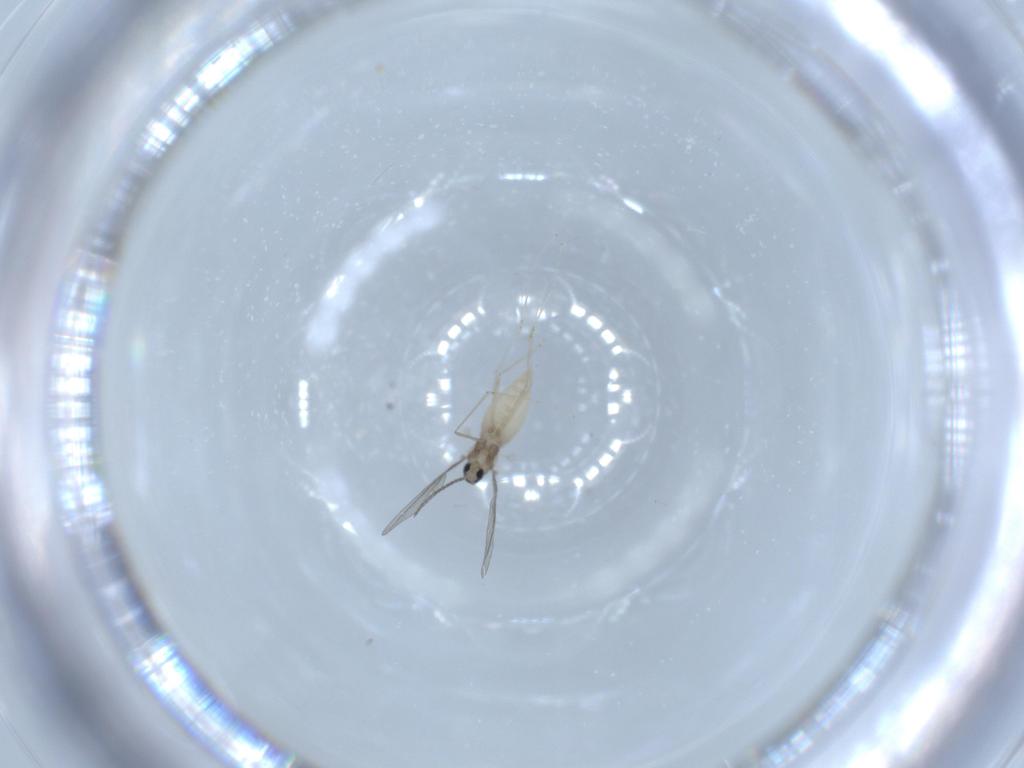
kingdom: Animalia
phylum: Arthropoda
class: Insecta
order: Diptera
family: Cecidomyiidae
